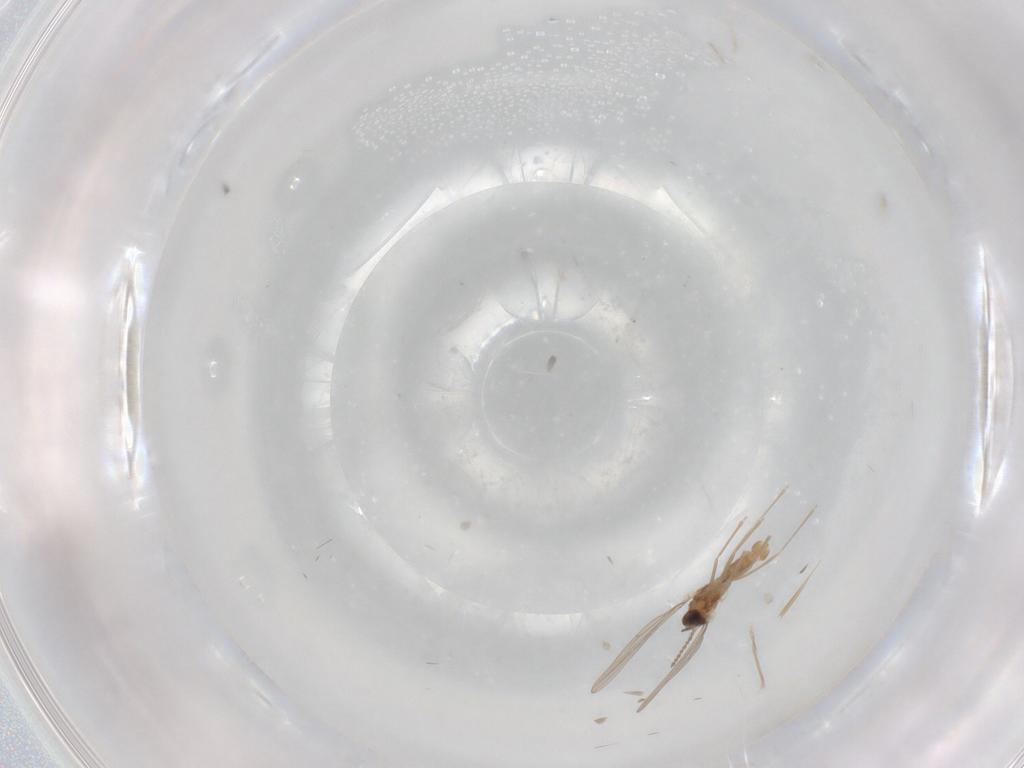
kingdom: Animalia
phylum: Arthropoda
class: Insecta
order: Diptera
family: Cecidomyiidae
